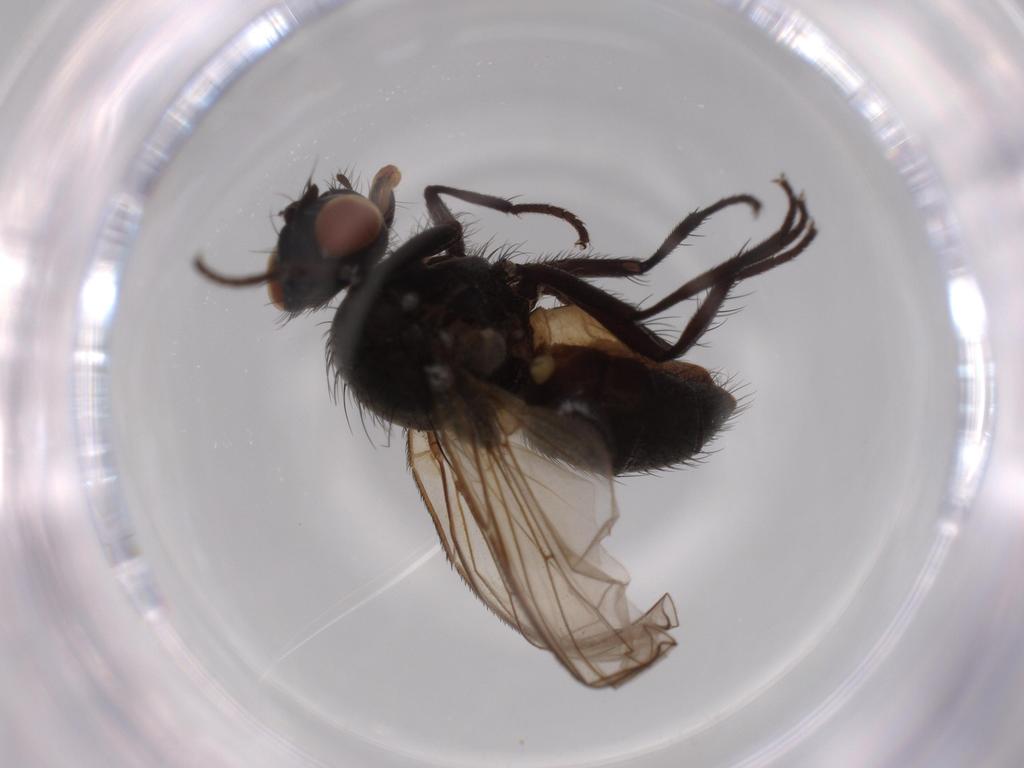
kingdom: Animalia
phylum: Arthropoda
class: Insecta
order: Diptera
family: Anthomyiidae
